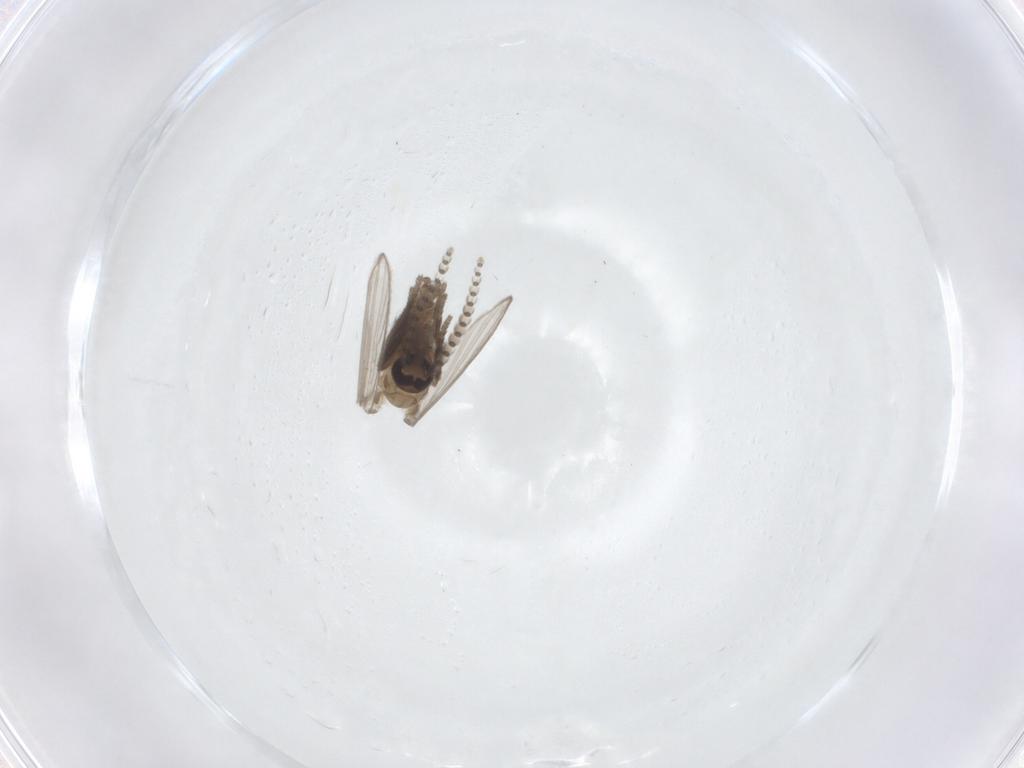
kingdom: Animalia
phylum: Arthropoda
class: Insecta
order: Diptera
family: Psychodidae
